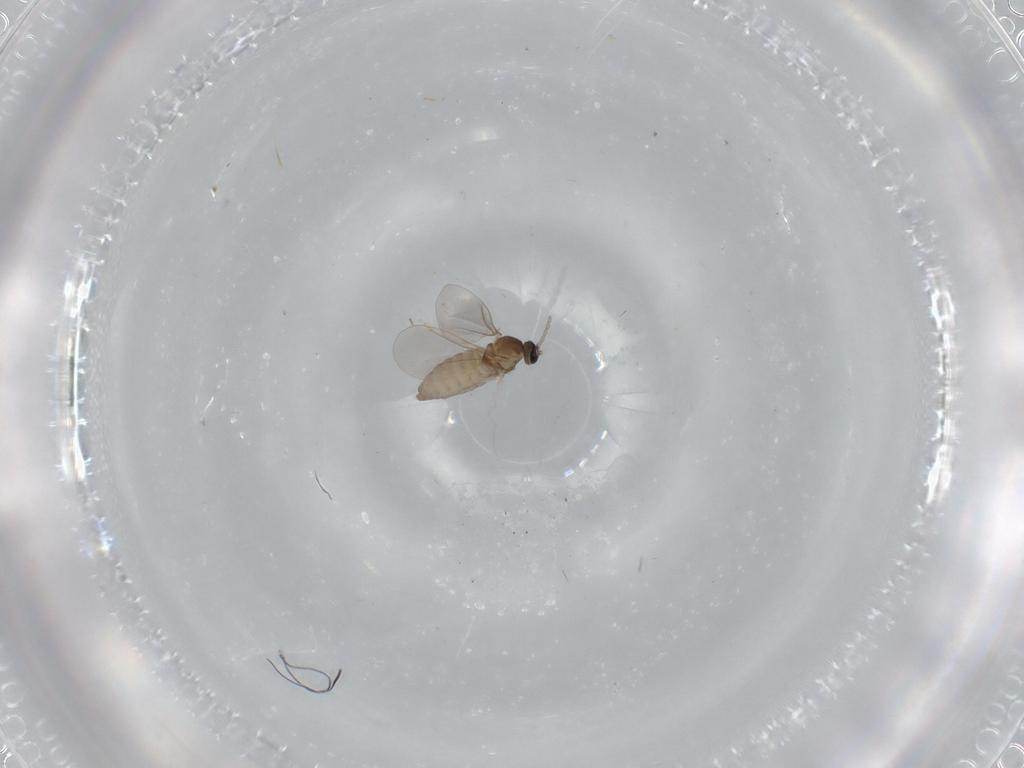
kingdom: Animalia
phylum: Arthropoda
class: Insecta
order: Diptera
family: Cecidomyiidae
